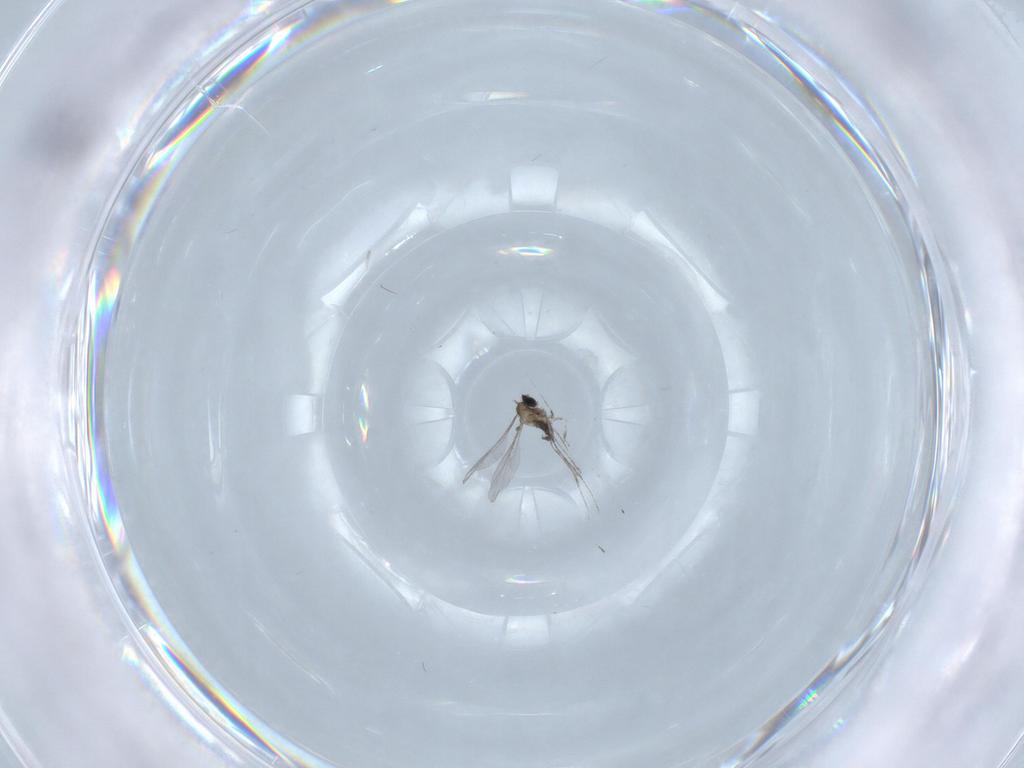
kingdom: Animalia
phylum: Arthropoda
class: Insecta
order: Diptera
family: Cecidomyiidae
